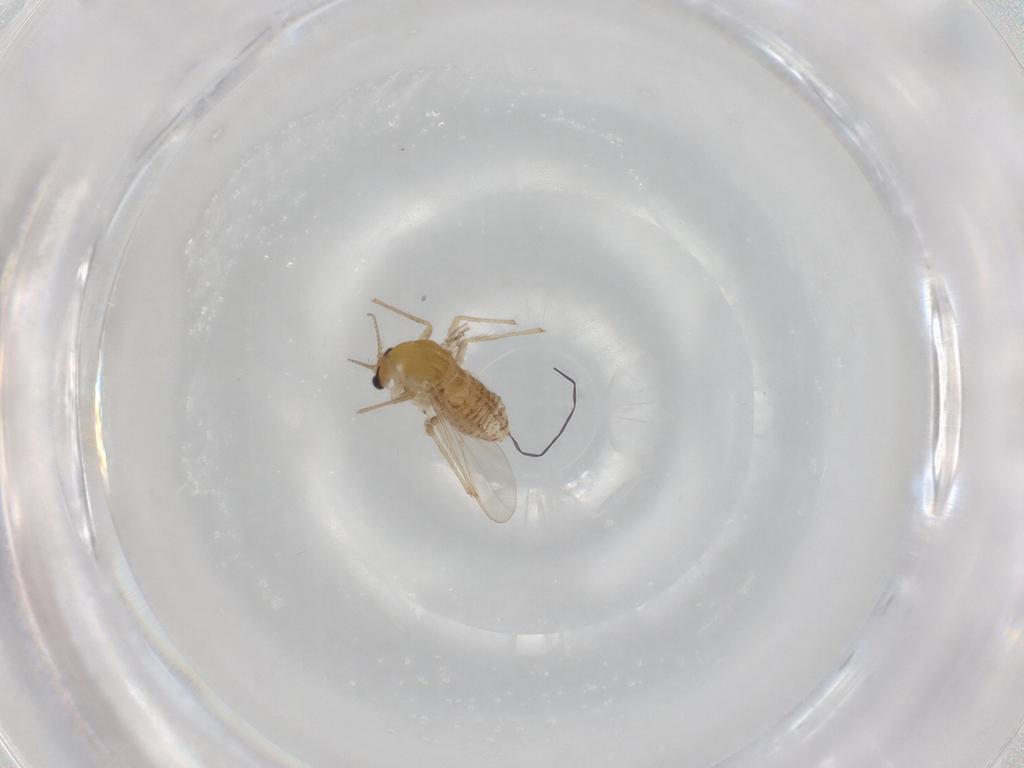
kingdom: Animalia
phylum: Arthropoda
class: Insecta
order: Diptera
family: Chironomidae
